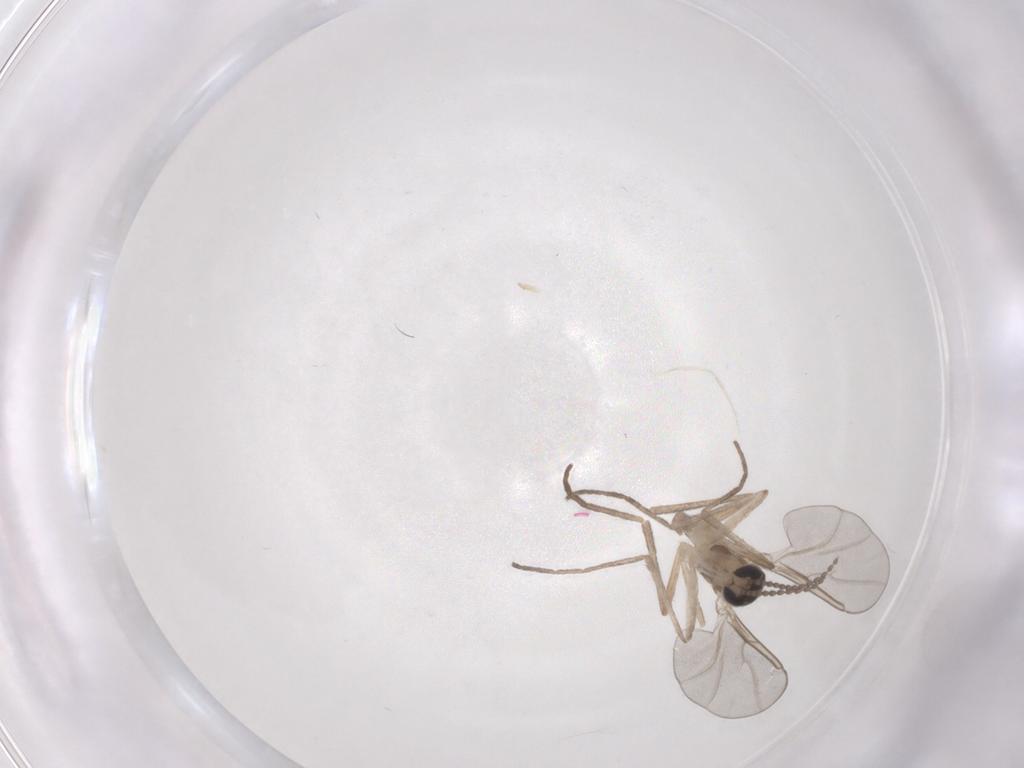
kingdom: Animalia
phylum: Arthropoda
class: Insecta
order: Diptera
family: Cecidomyiidae
